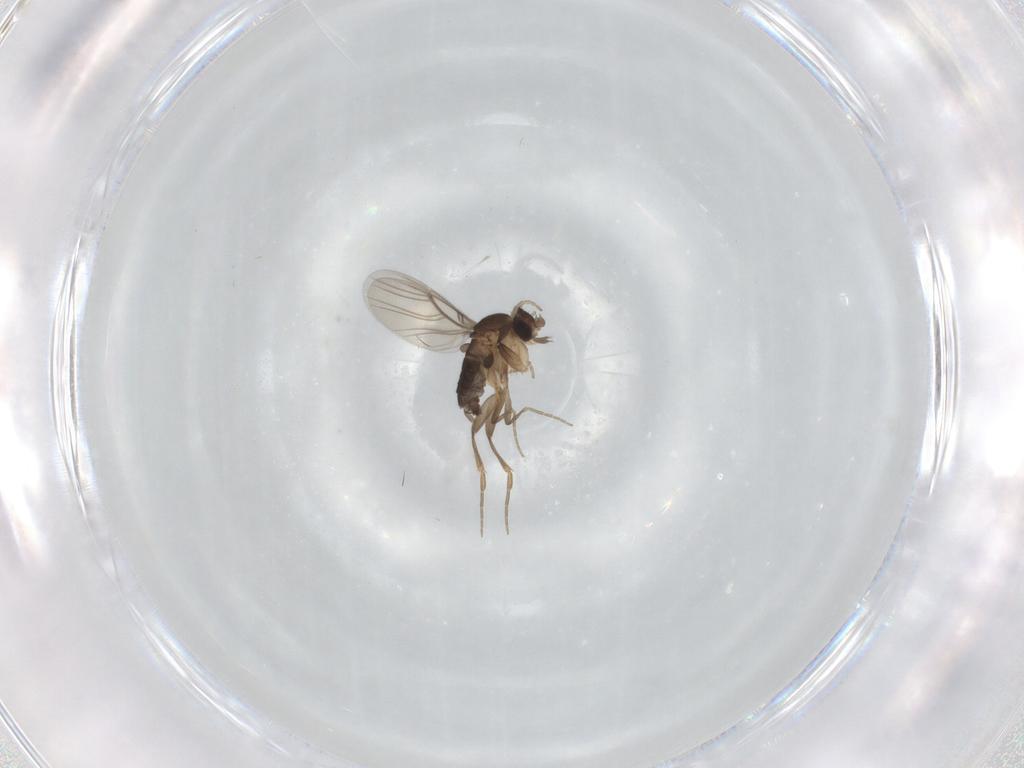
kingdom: Animalia
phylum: Arthropoda
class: Insecta
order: Diptera
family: Phoridae
